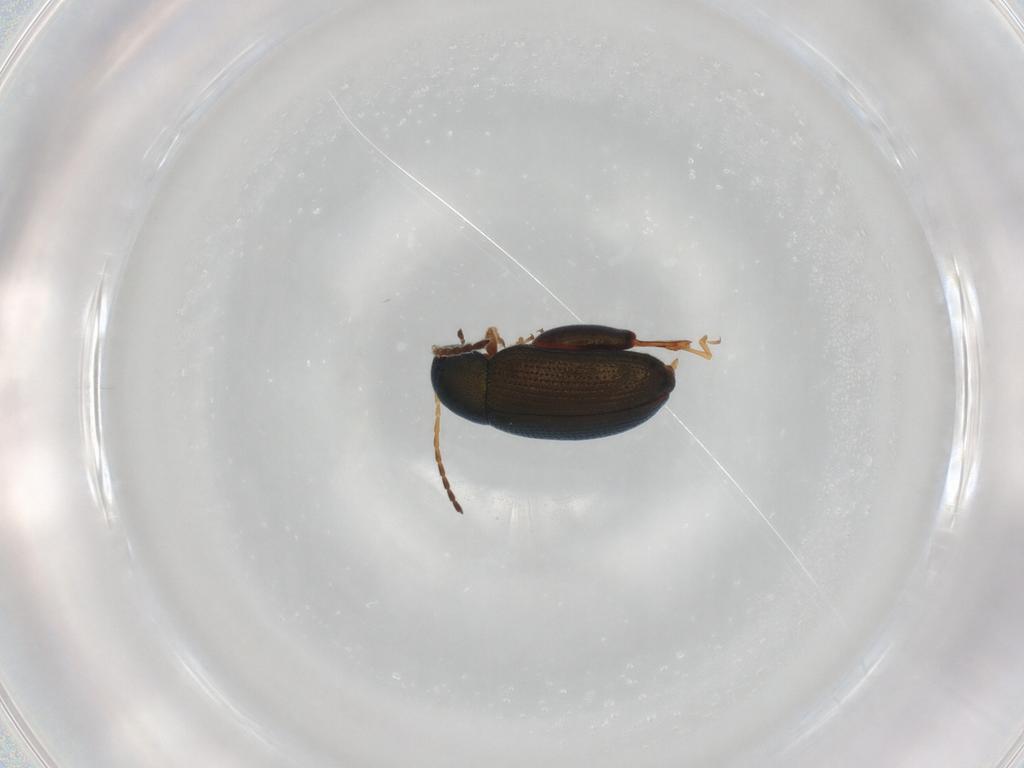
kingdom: Animalia
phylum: Arthropoda
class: Insecta
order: Coleoptera
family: Chrysomelidae
